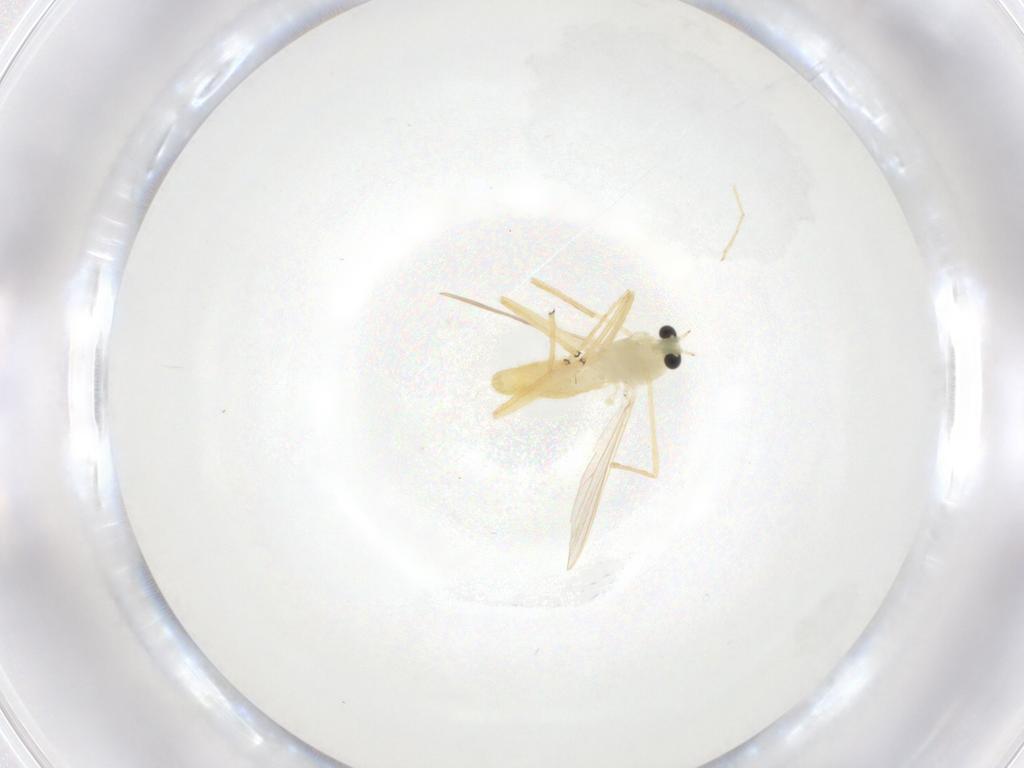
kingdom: Animalia
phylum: Arthropoda
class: Insecta
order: Diptera
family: Chironomidae
